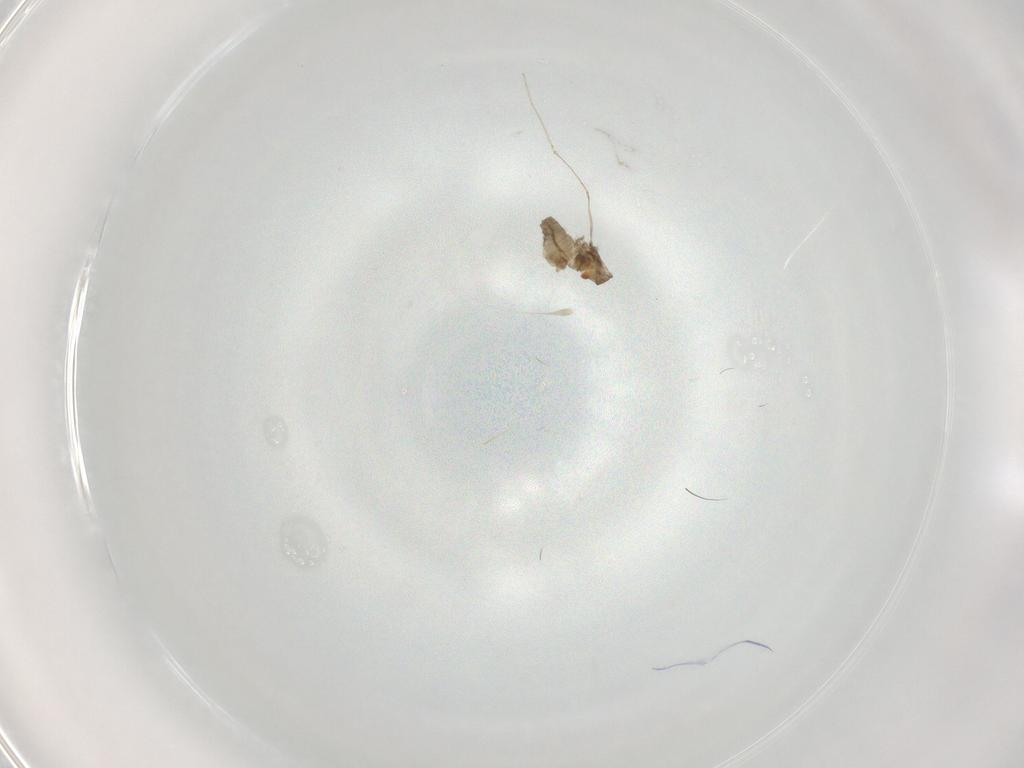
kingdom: Animalia
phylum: Arthropoda
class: Insecta
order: Diptera
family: Cecidomyiidae
